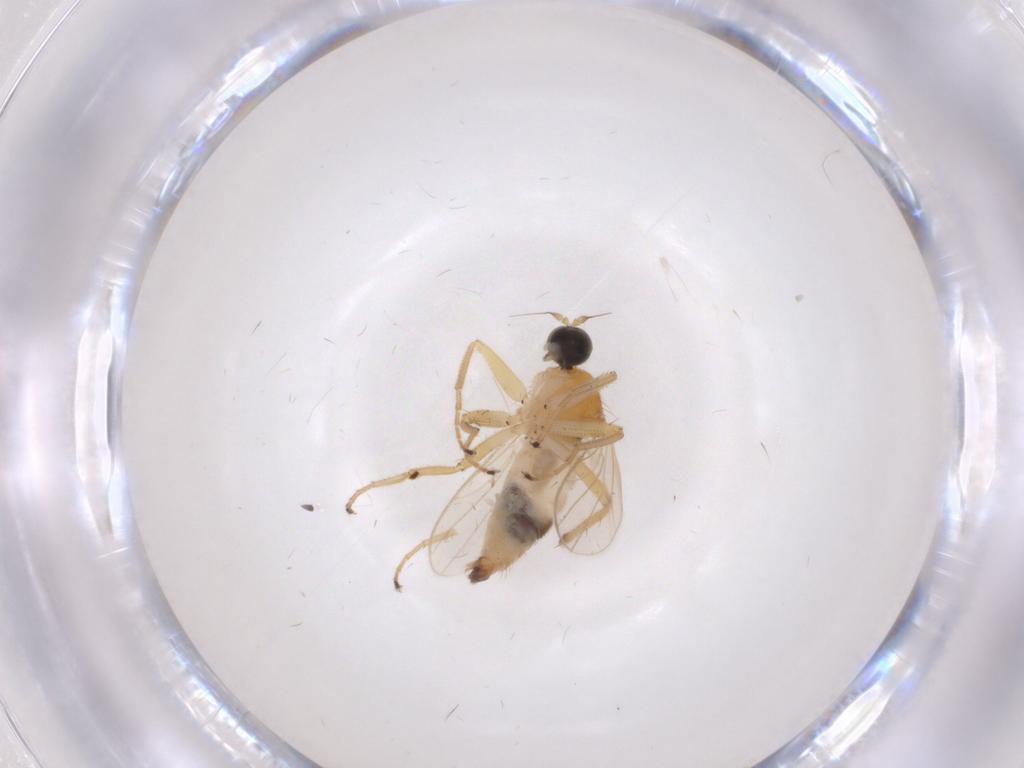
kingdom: Animalia
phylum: Arthropoda
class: Insecta
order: Diptera
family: Hybotidae
